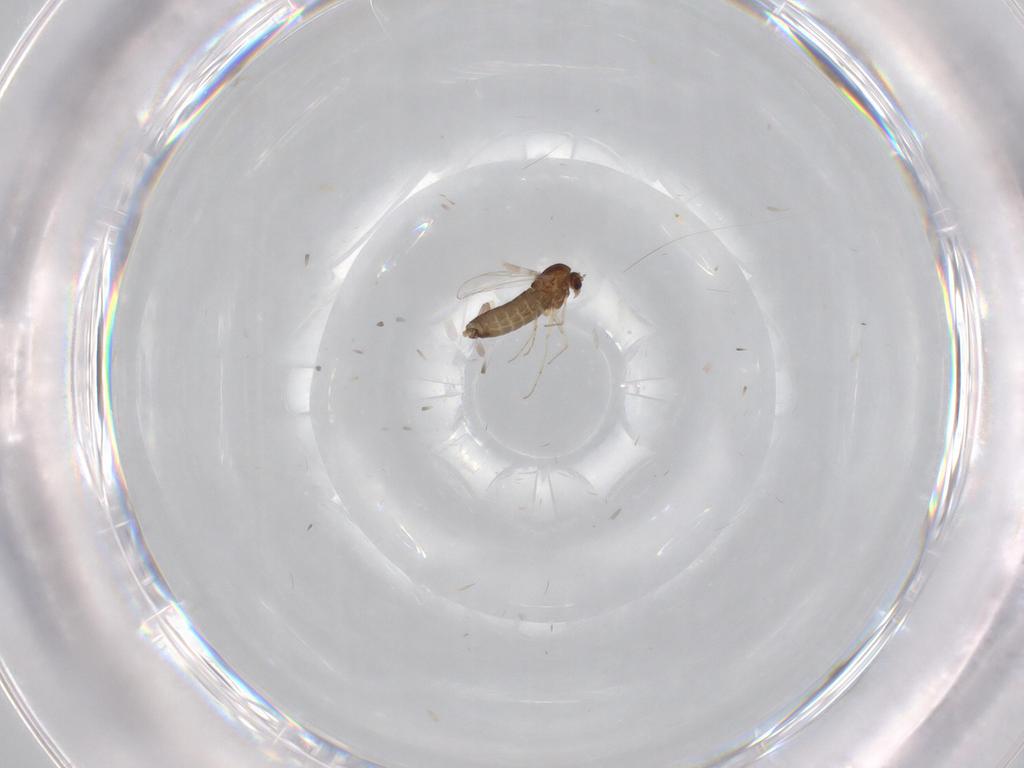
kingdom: Animalia
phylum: Arthropoda
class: Insecta
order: Diptera
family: Chironomidae
